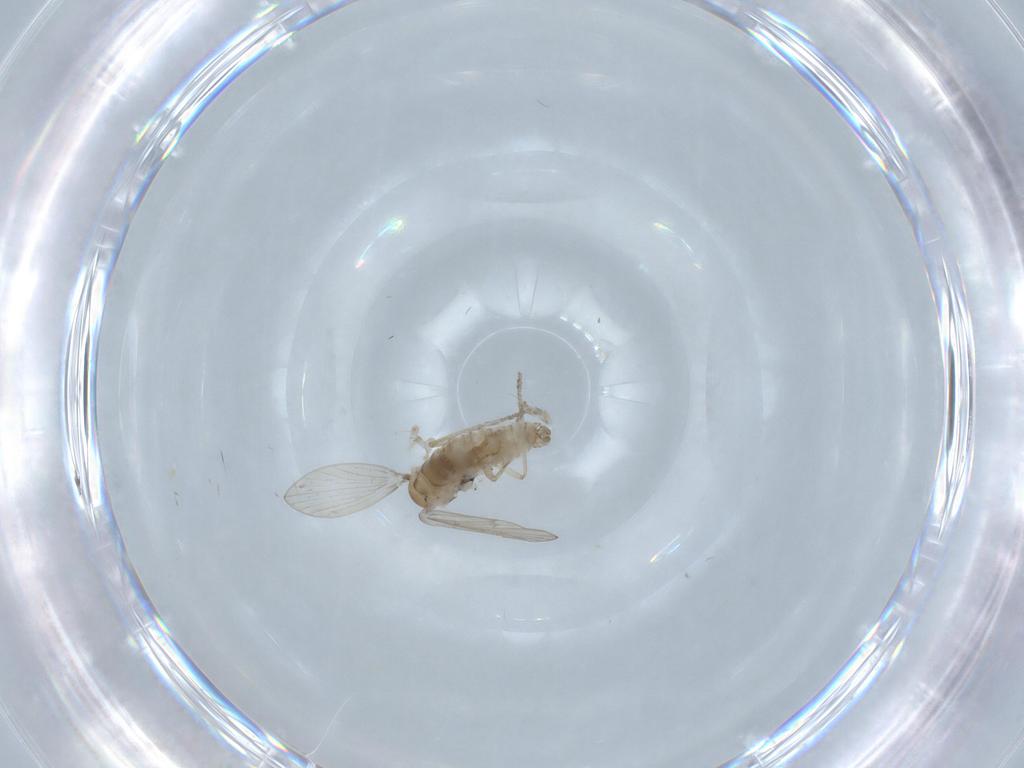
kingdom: Animalia
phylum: Arthropoda
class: Insecta
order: Diptera
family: Psychodidae
